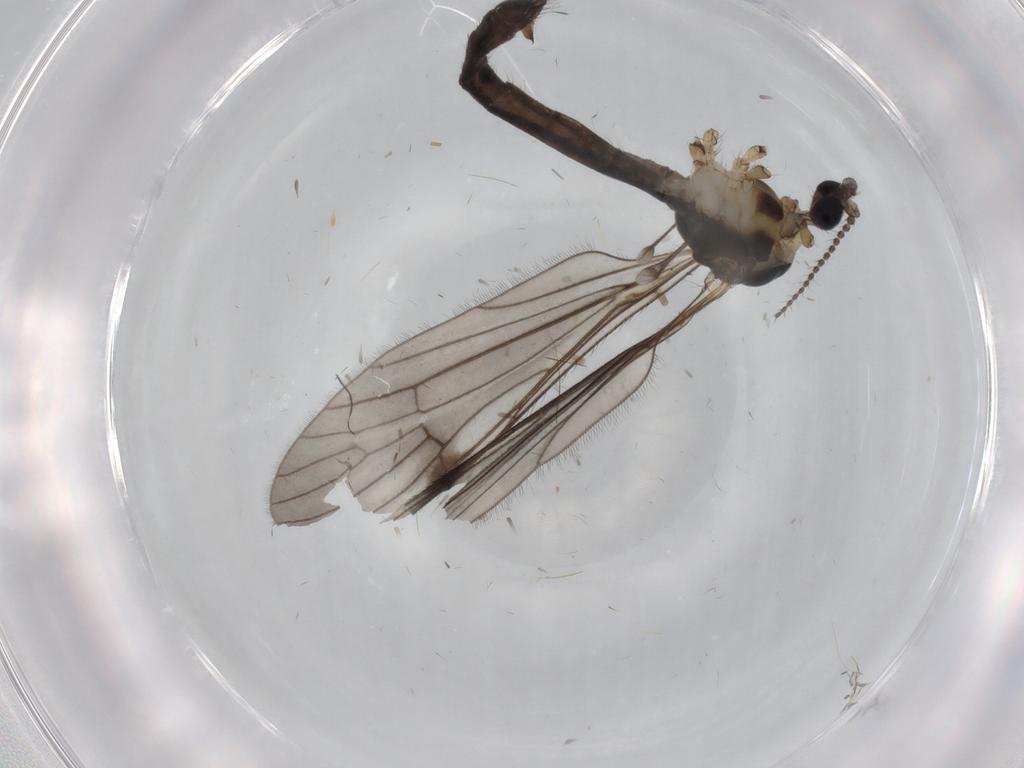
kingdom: Animalia
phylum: Arthropoda
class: Insecta
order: Diptera
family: Limoniidae
